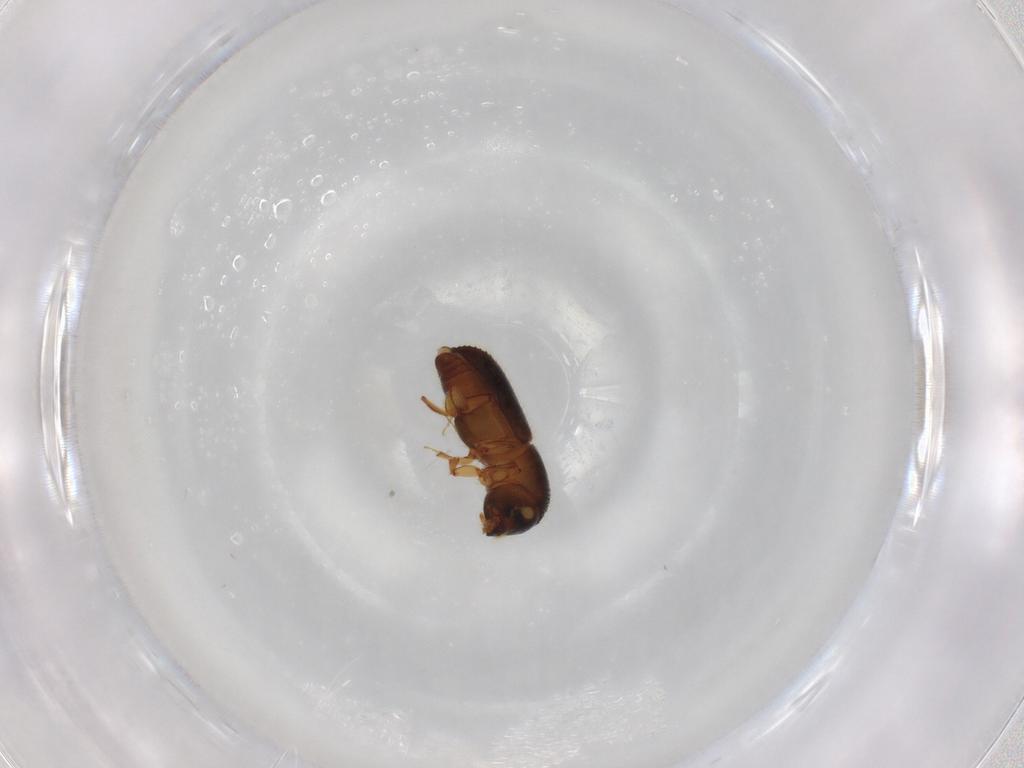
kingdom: Animalia
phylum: Arthropoda
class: Insecta
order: Coleoptera
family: Curculionidae
